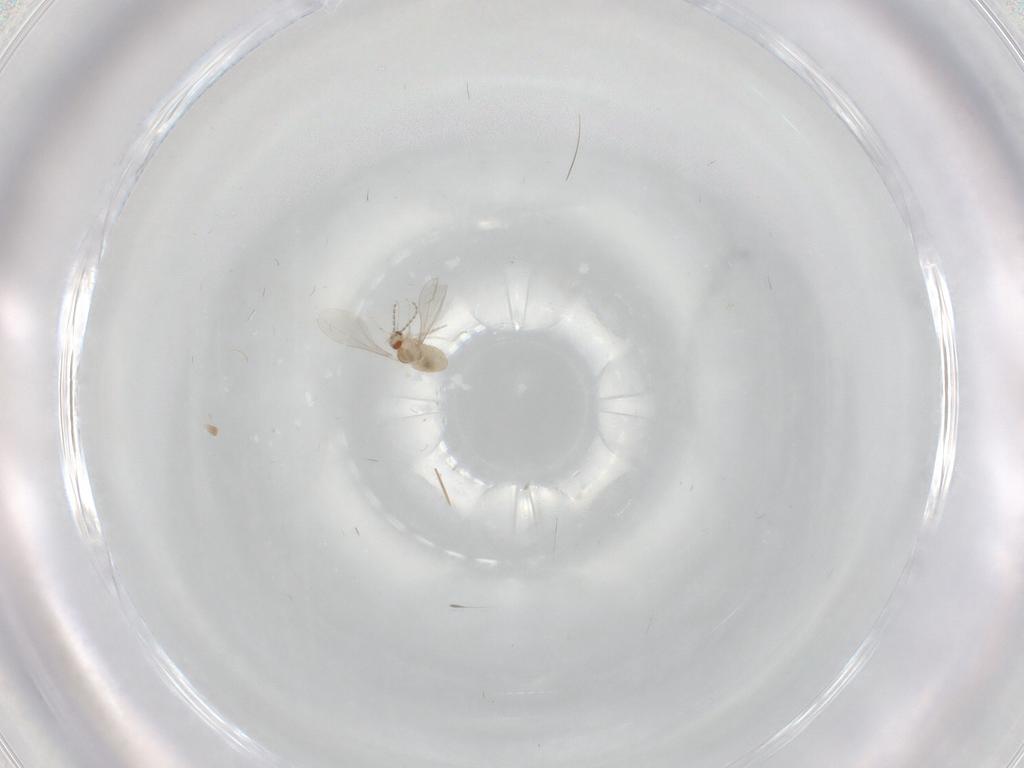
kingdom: Animalia
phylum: Arthropoda
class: Insecta
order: Diptera
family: Cecidomyiidae
